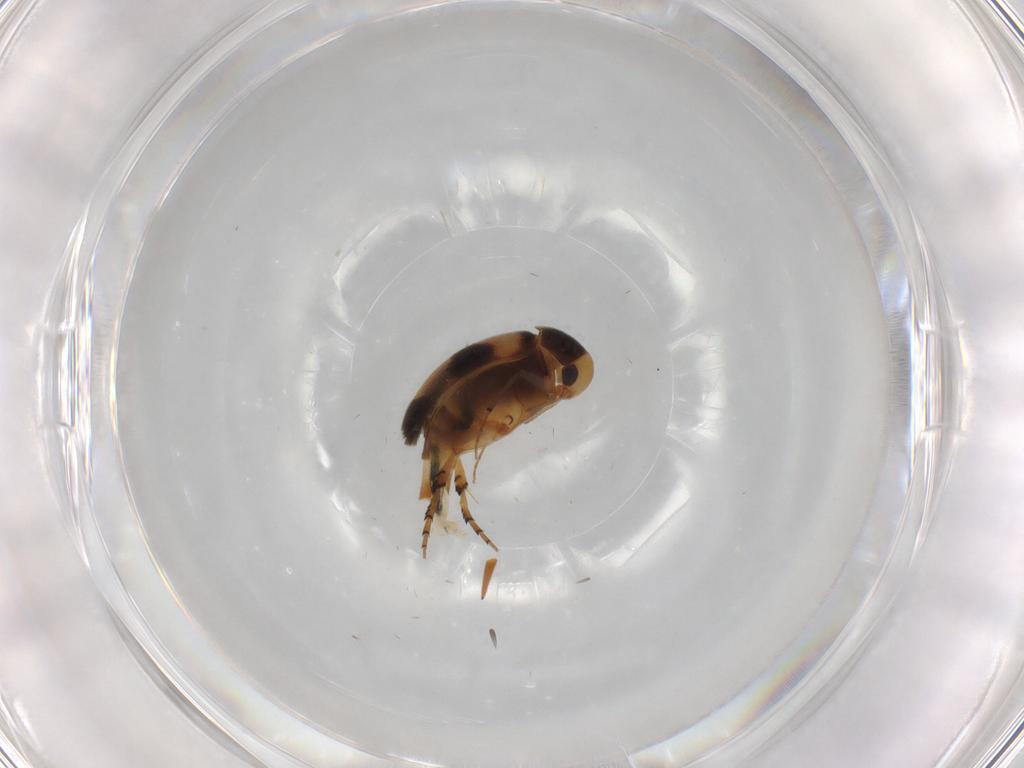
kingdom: Animalia
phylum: Arthropoda
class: Insecta
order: Coleoptera
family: Mordellidae
